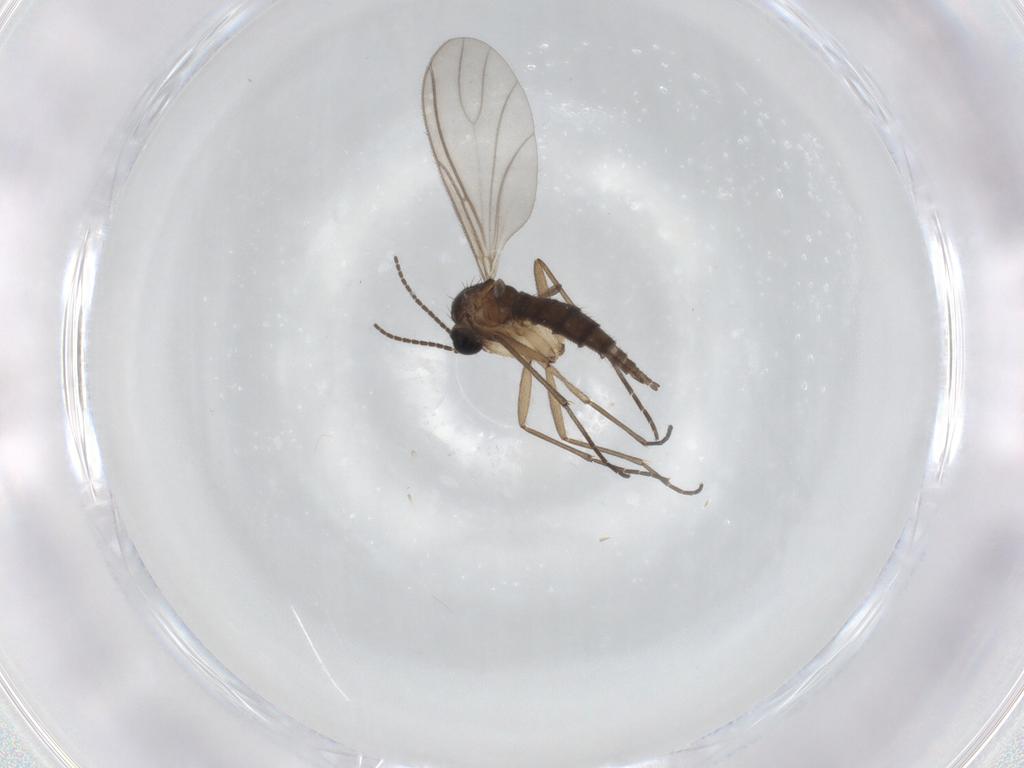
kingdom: Animalia
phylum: Arthropoda
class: Insecta
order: Diptera
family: Sciaridae
